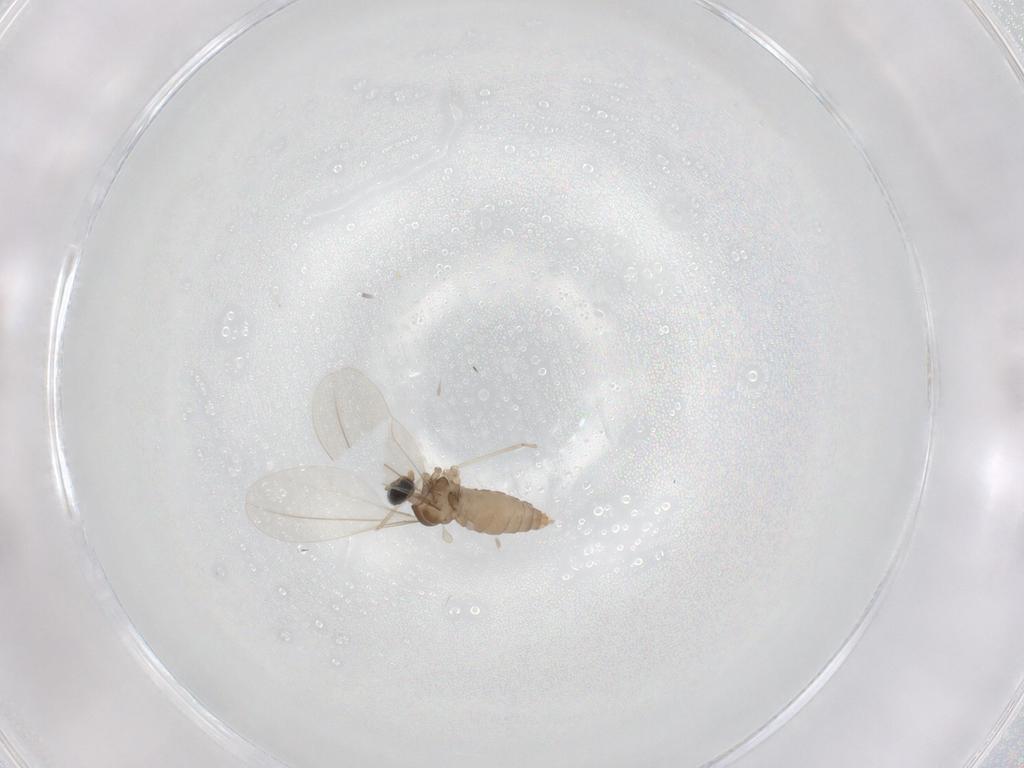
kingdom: Animalia
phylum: Arthropoda
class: Insecta
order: Diptera
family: Cecidomyiidae
